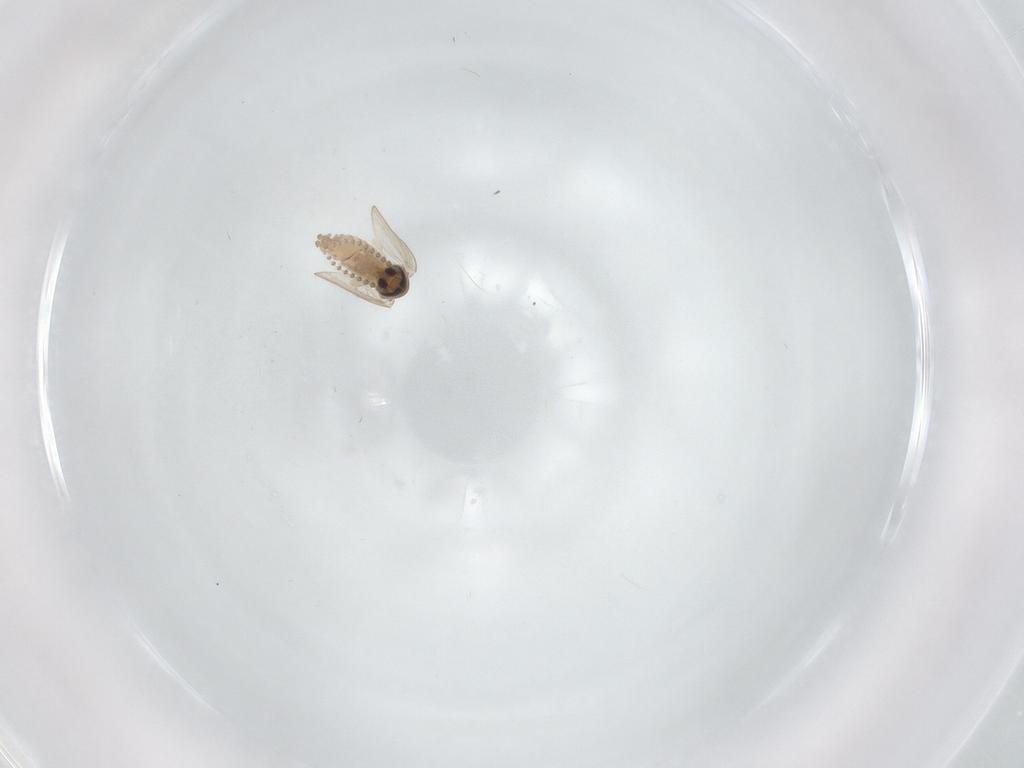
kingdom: Animalia
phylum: Arthropoda
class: Insecta
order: Diptera
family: Psychodidae
